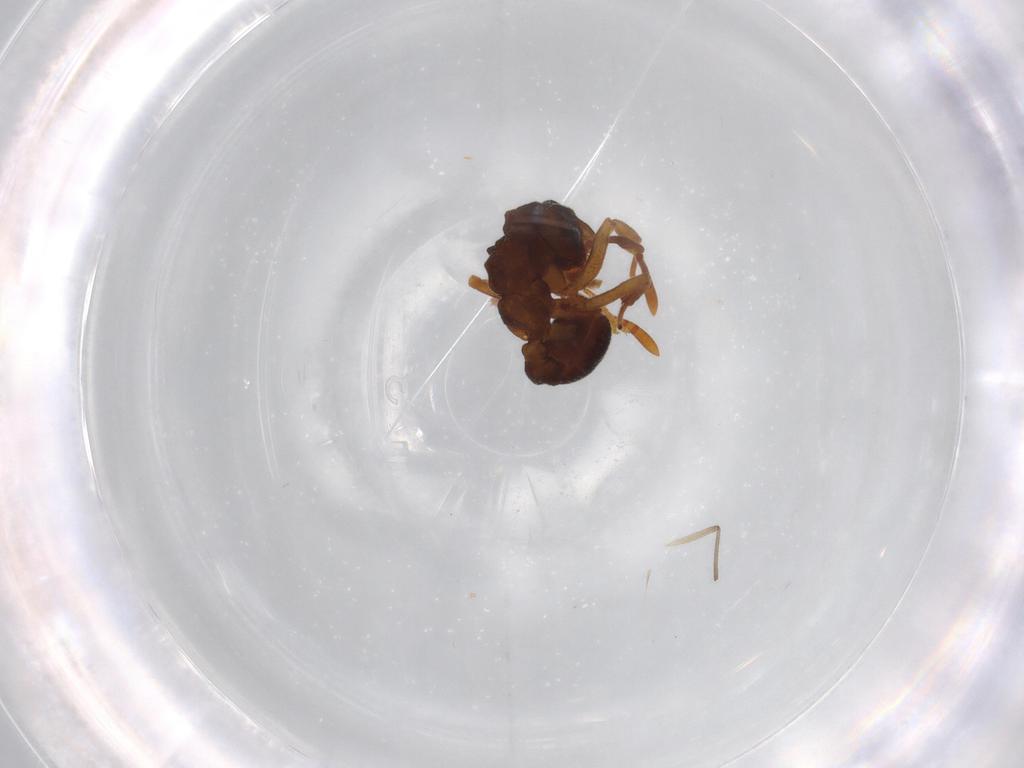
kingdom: Animalia
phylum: Arthropoda
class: Insecta
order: Hymenoptera
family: Formicidae
